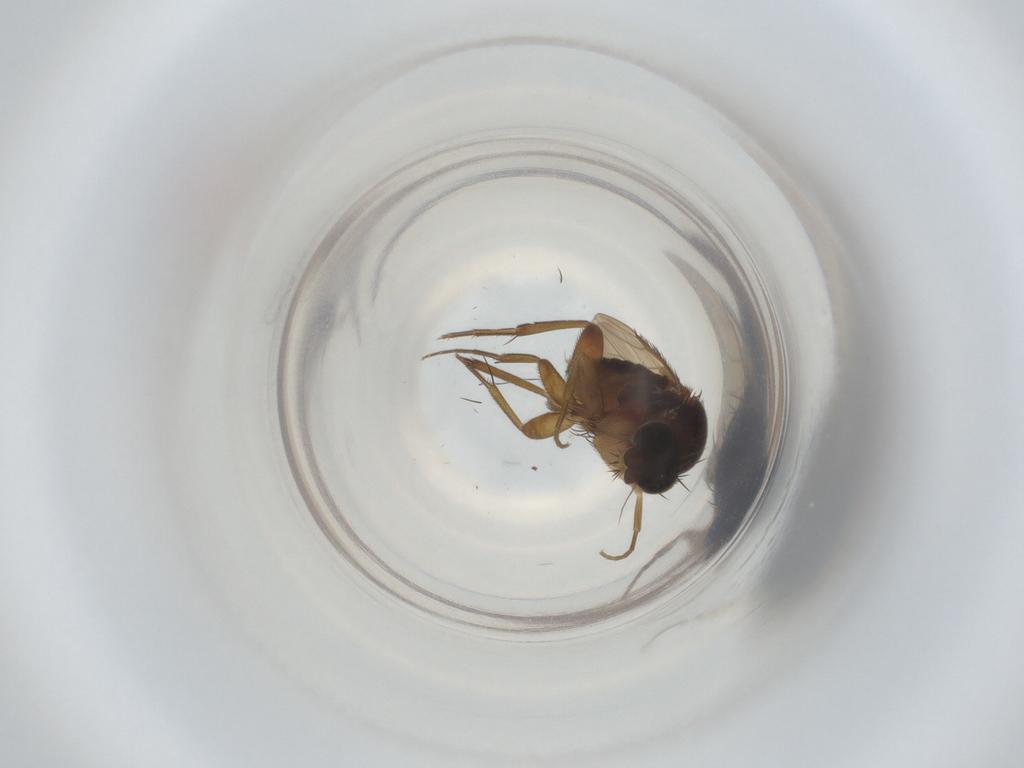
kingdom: Animalia
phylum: Arthropoda
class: Insecta
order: Diptera
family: Phoridae
